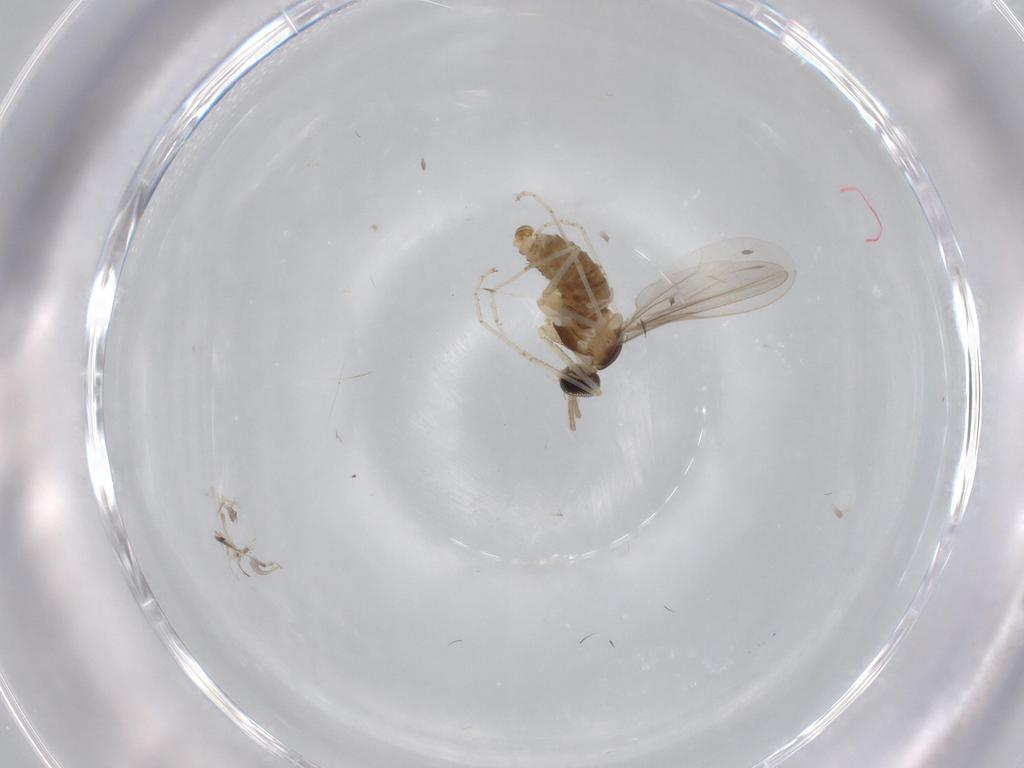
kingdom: Animalia
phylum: Arthropoda
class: Insecta
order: Diptera
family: Cecidomyiidae
